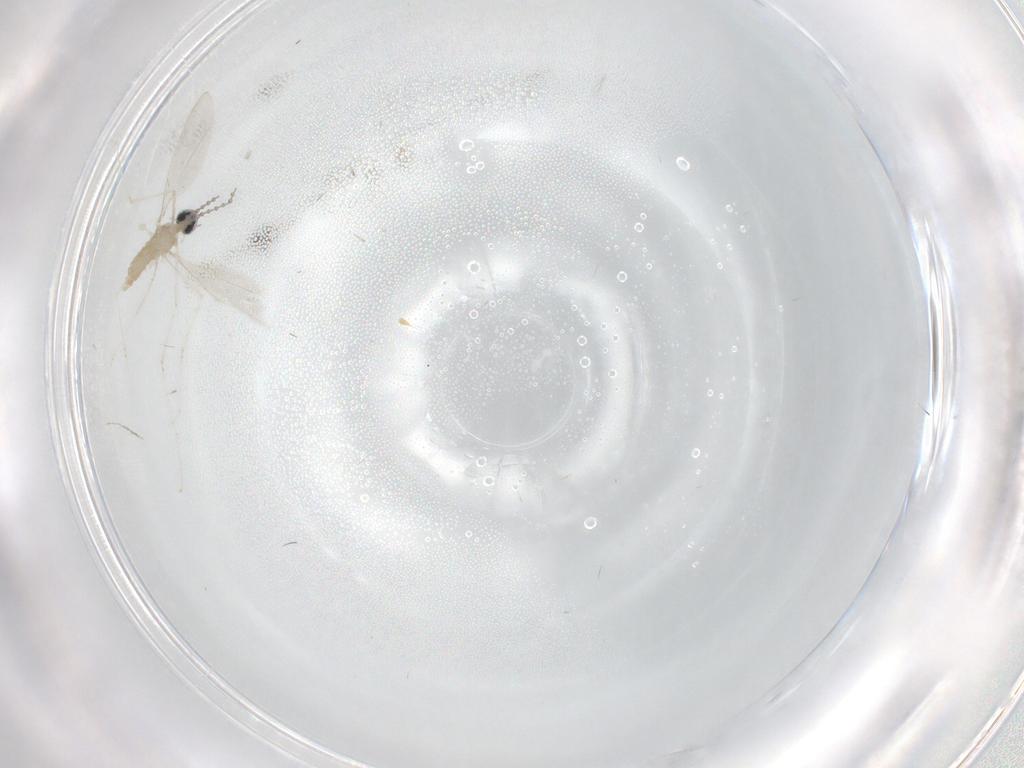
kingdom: Animalia
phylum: Arthropoda
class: Insecta
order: Diptera
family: Cecidomyiidae
